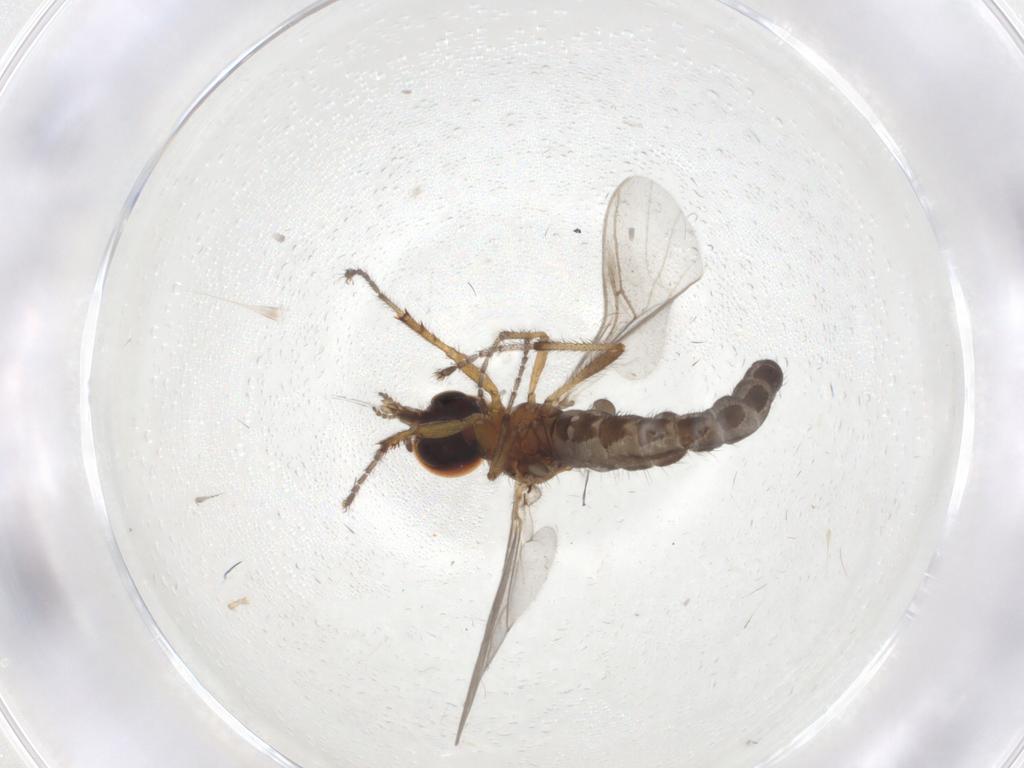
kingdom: Animalia
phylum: Arthropoda
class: Insecta
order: Diptera
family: Bibionidae
